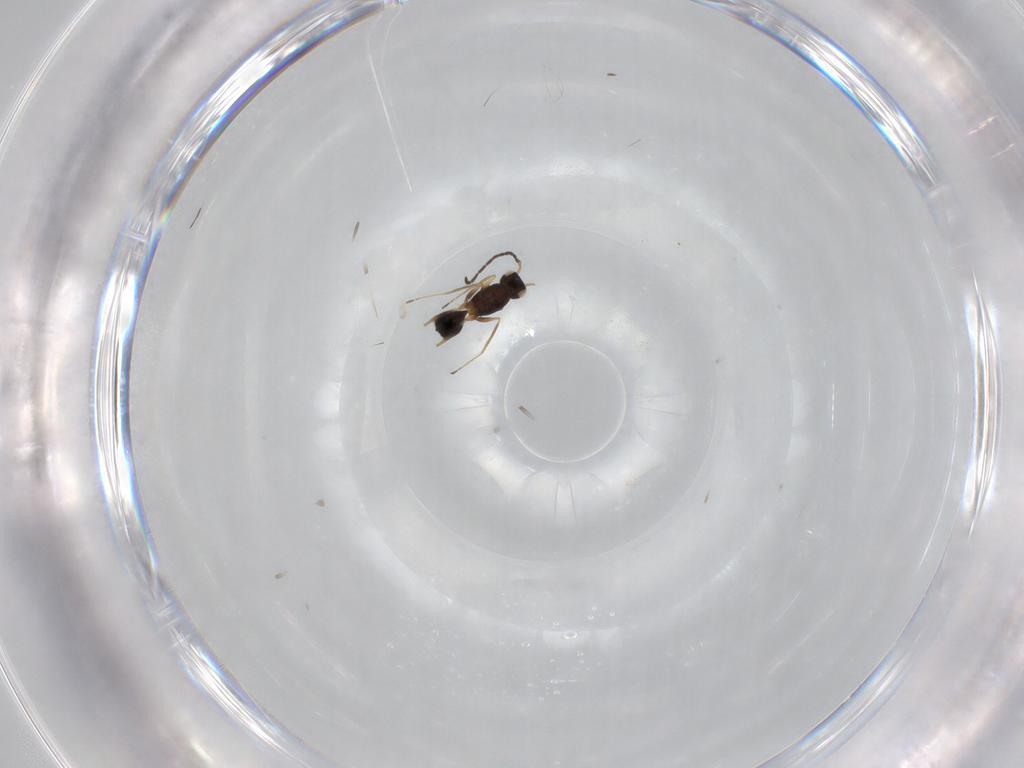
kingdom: Animalia
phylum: Arthropoda
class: Insecta
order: Hymenoptera
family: Vespidae
